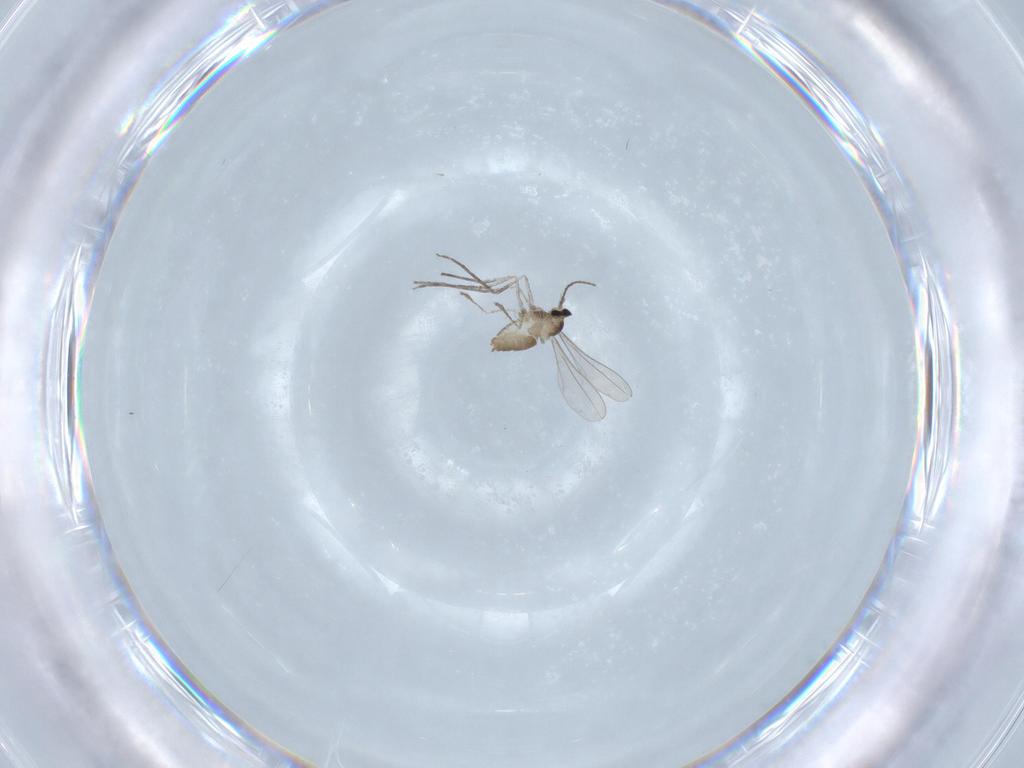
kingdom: Animalia
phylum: Arthropoda
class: Insecta
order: Diptera
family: Cecidomyiidae
